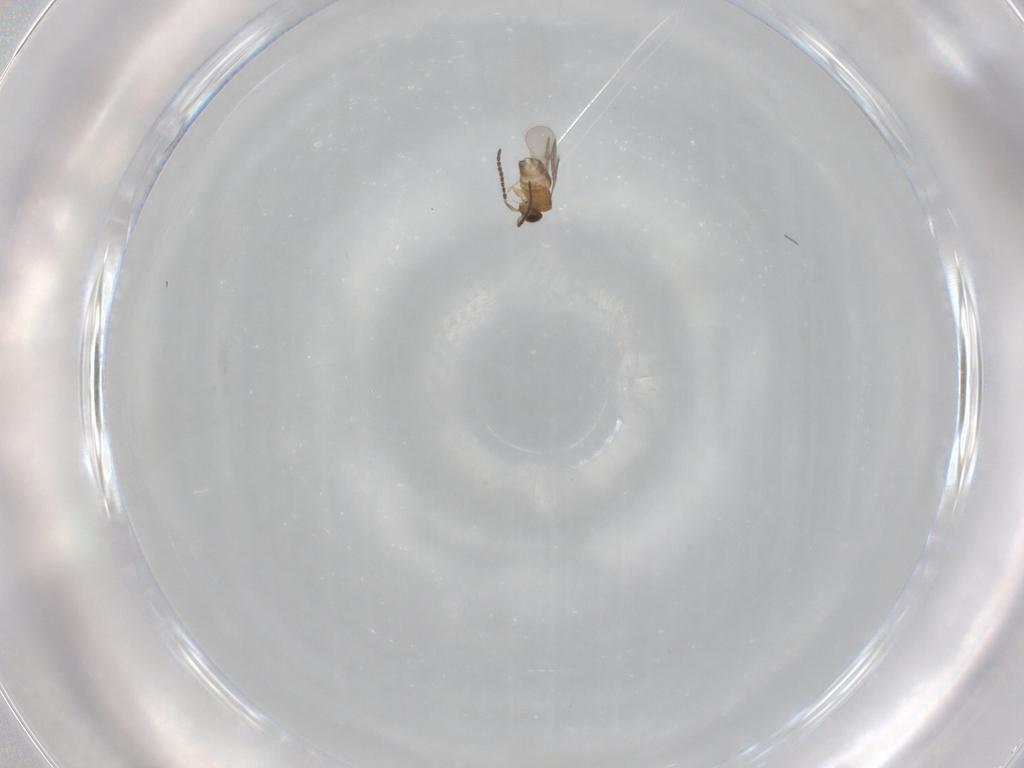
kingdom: Animalia
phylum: Arthropoda
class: Insecta
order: Hymenoptera
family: Ceraphronidae
